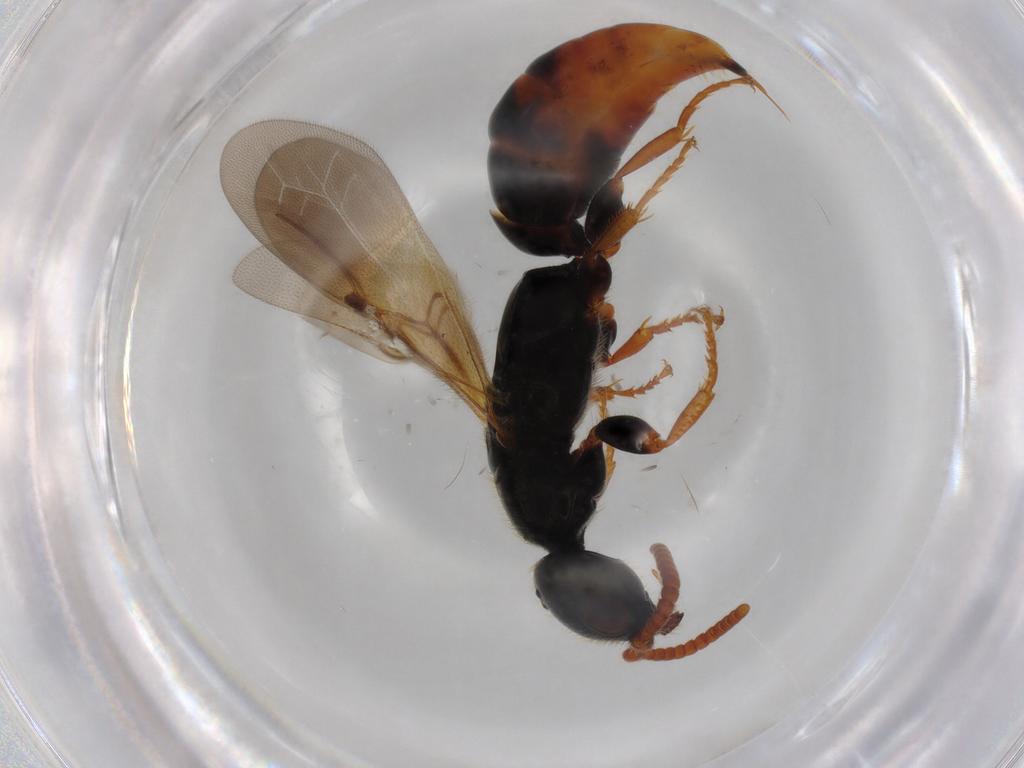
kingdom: Animalia
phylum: Arthropoda
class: Insecta
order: Hymenoptera
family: Bethylidae
